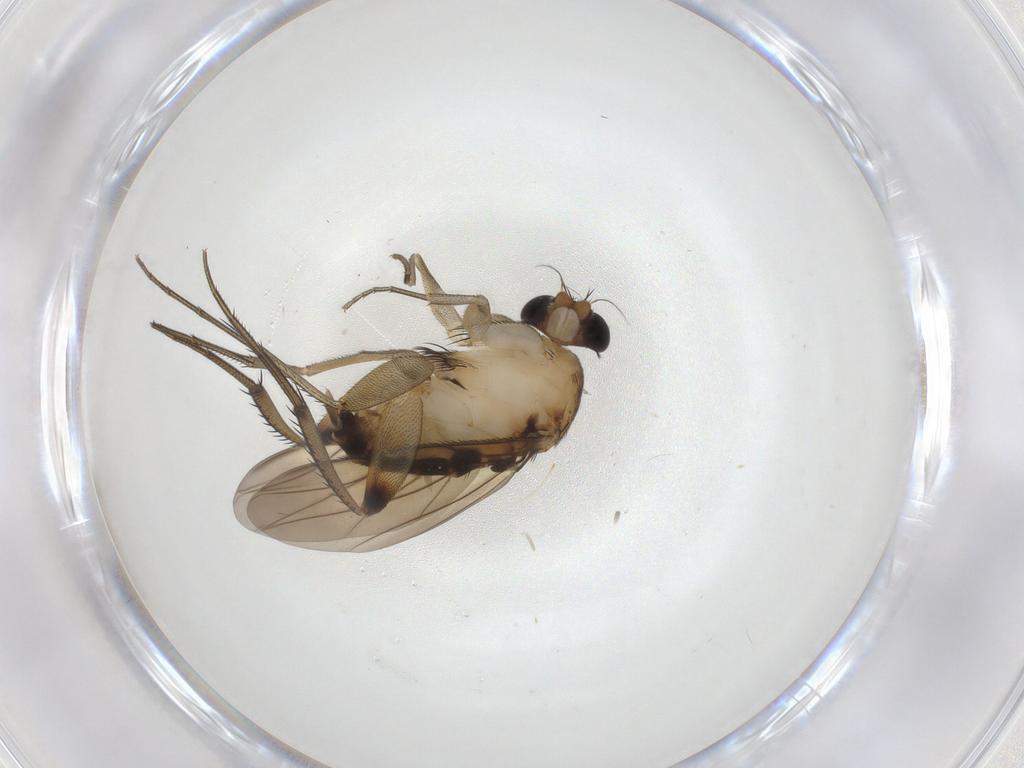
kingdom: Animalia
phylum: Arthropoda
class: Insecta
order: Diptera
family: Phoridae
